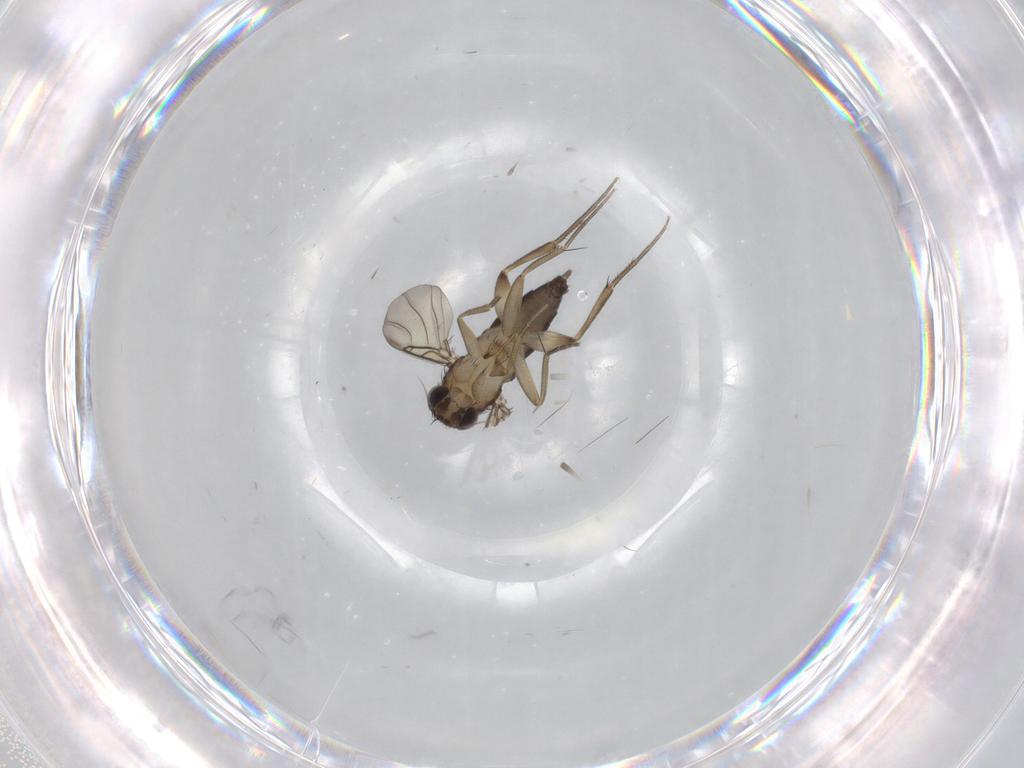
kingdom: Animalia
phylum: Arthropoda
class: Insecta
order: Diptera
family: Phoridae
